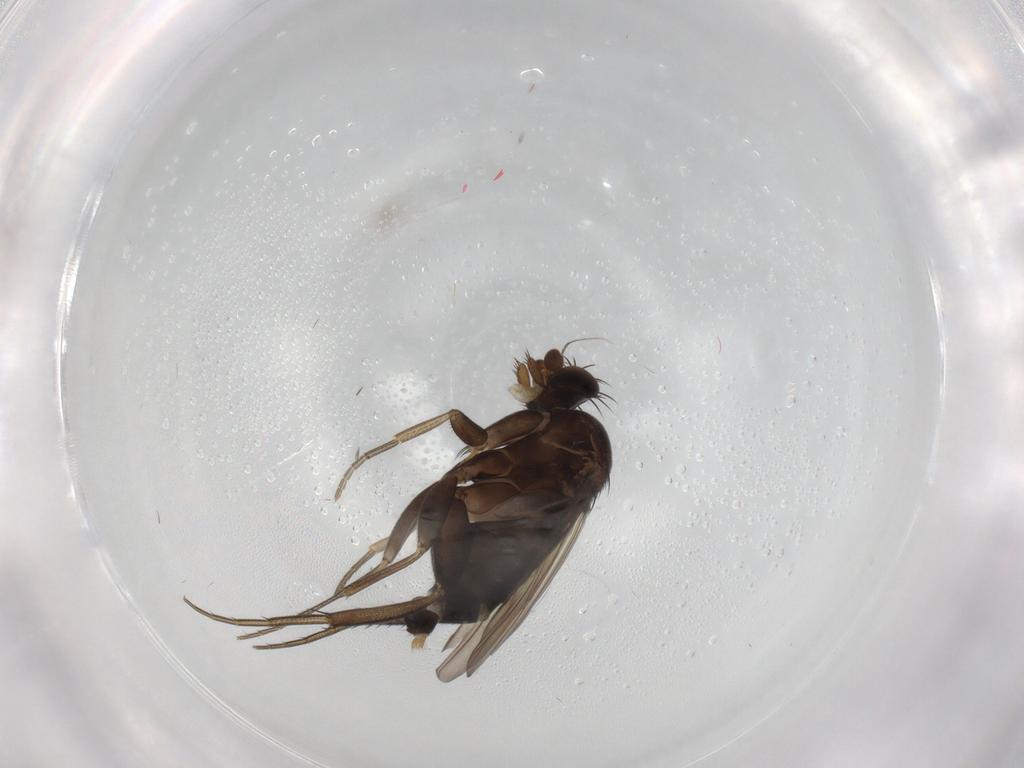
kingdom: Animalia
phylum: Arthropoda
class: Insecta
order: Diptera
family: Phoridae
